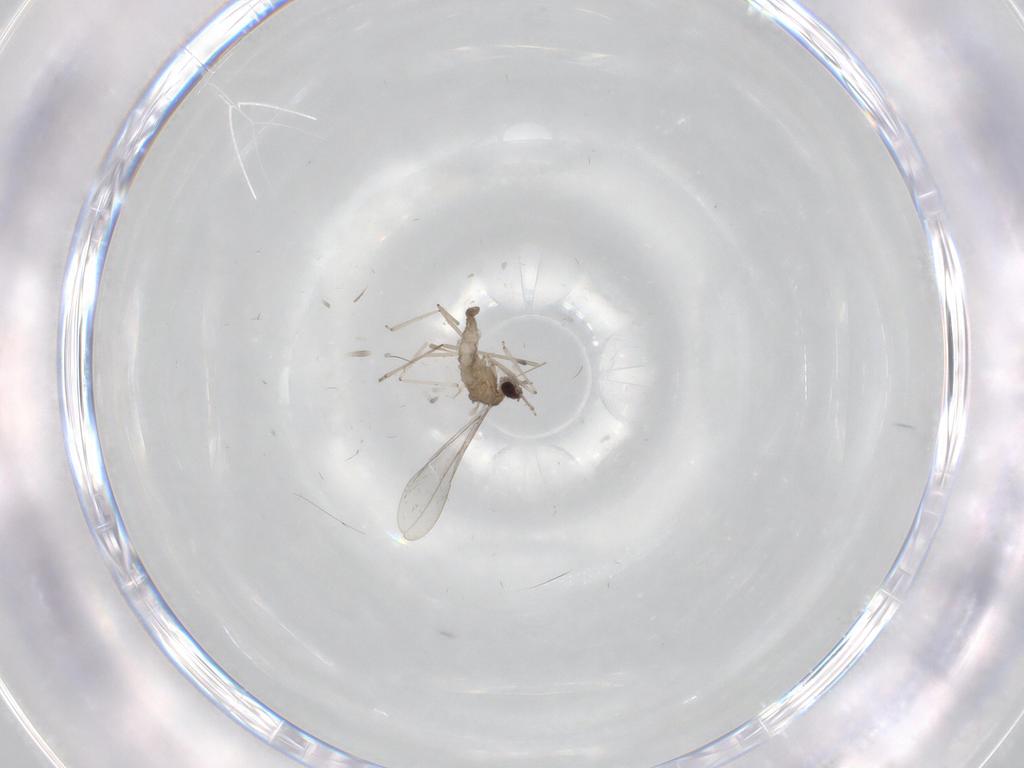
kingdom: Animalia
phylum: Arthropoda
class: Insecta
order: Diptera
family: Cecidomyiidae
